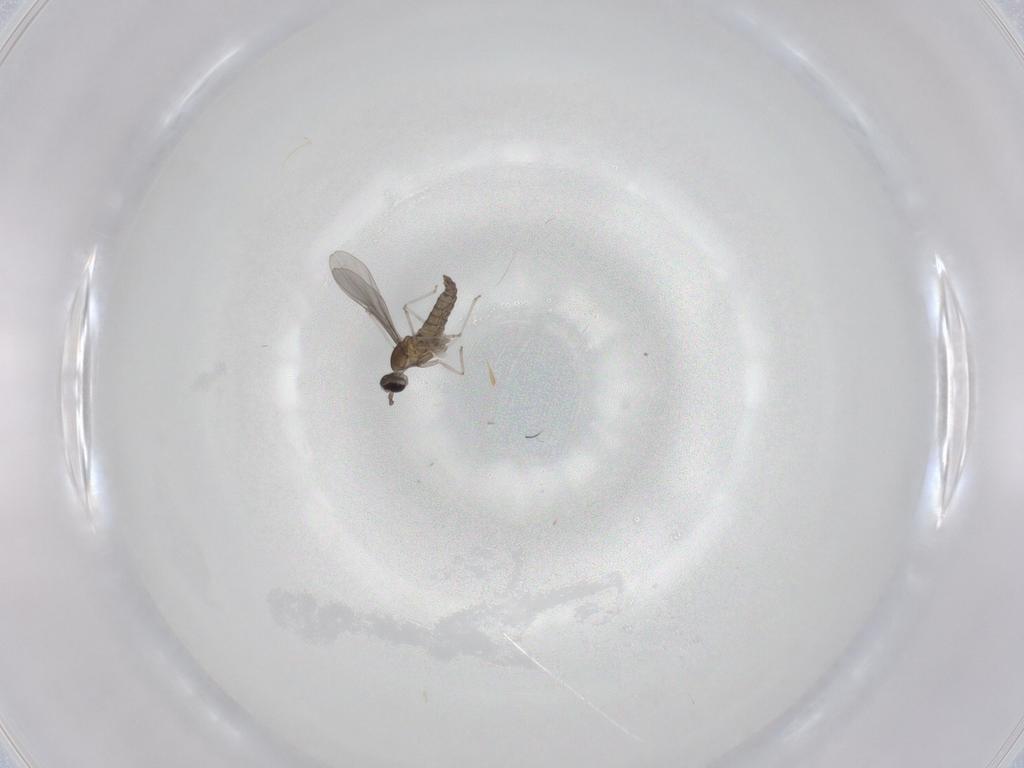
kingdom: Animalia
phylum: Arthropoda
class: Insecta
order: Diptera
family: Cecidomyiidae
